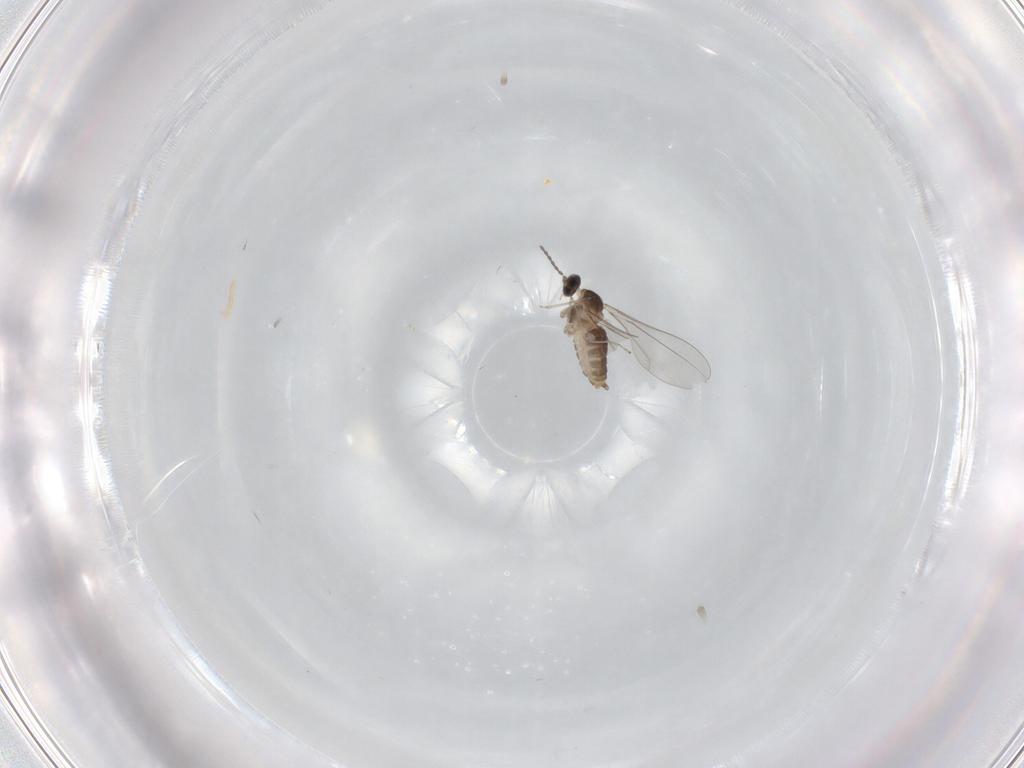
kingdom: Animalia
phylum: Arthropoda
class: Insecta
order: Diptera
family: Cecidomyiidae
